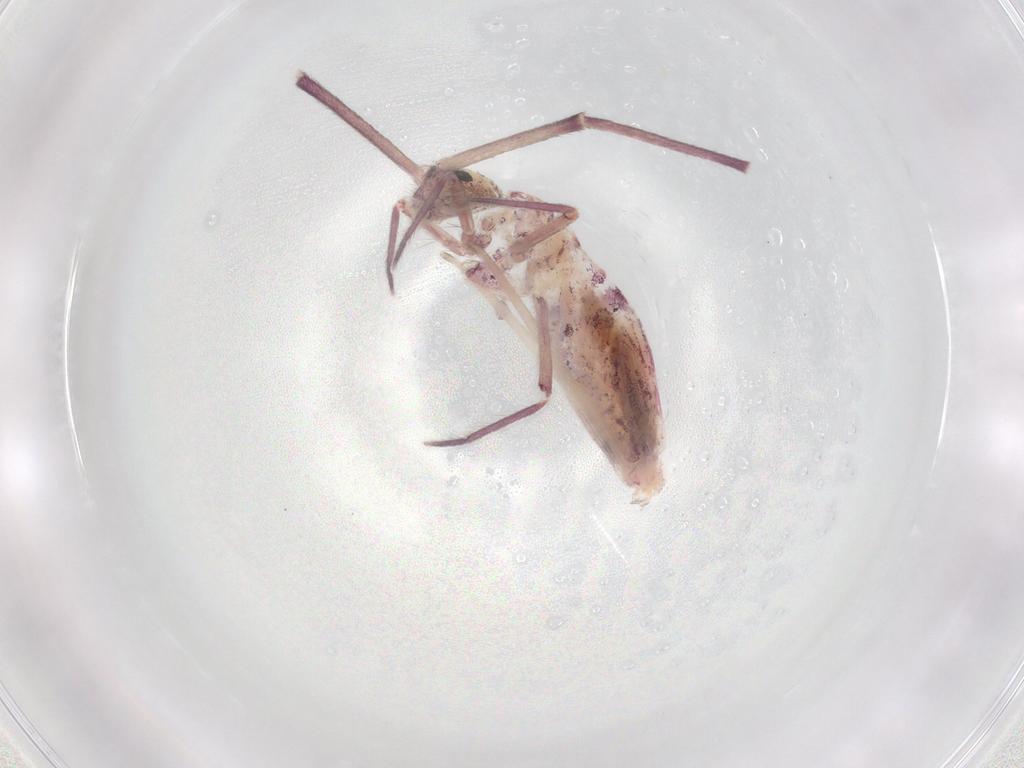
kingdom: Animalia
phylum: Arthropoda
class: Collembola
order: Entomobryomorpha
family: Entomobryidae
